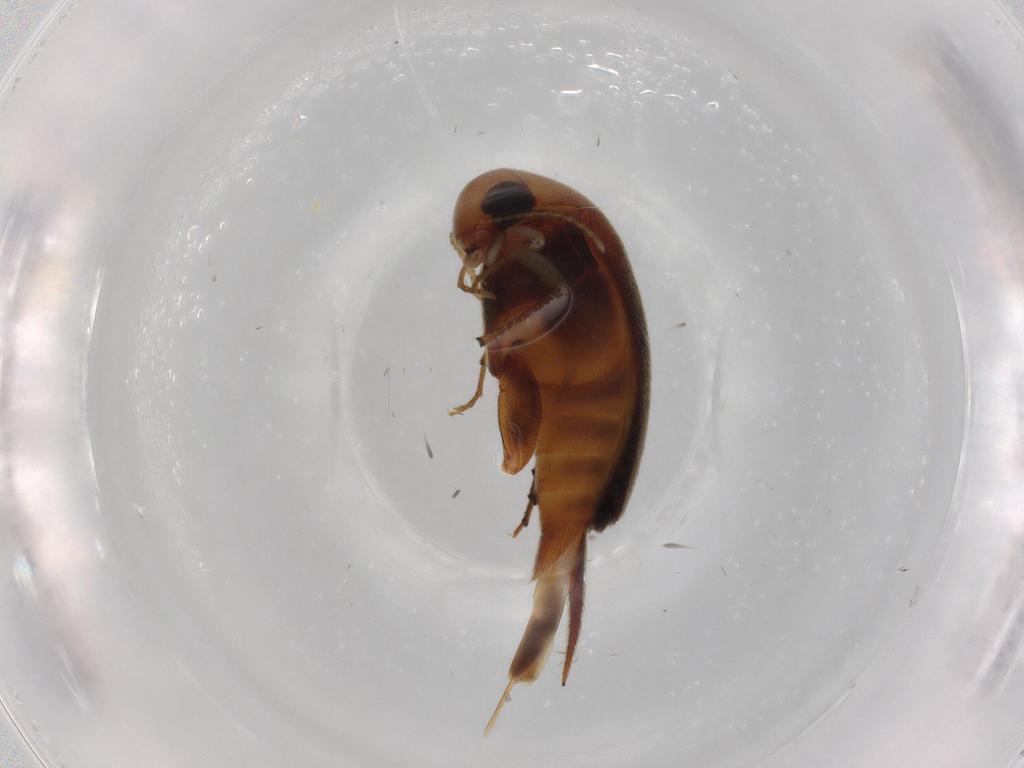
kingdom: Animalia
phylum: Arthropoda
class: Insecta
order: Coleoptera
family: Mordellidae
